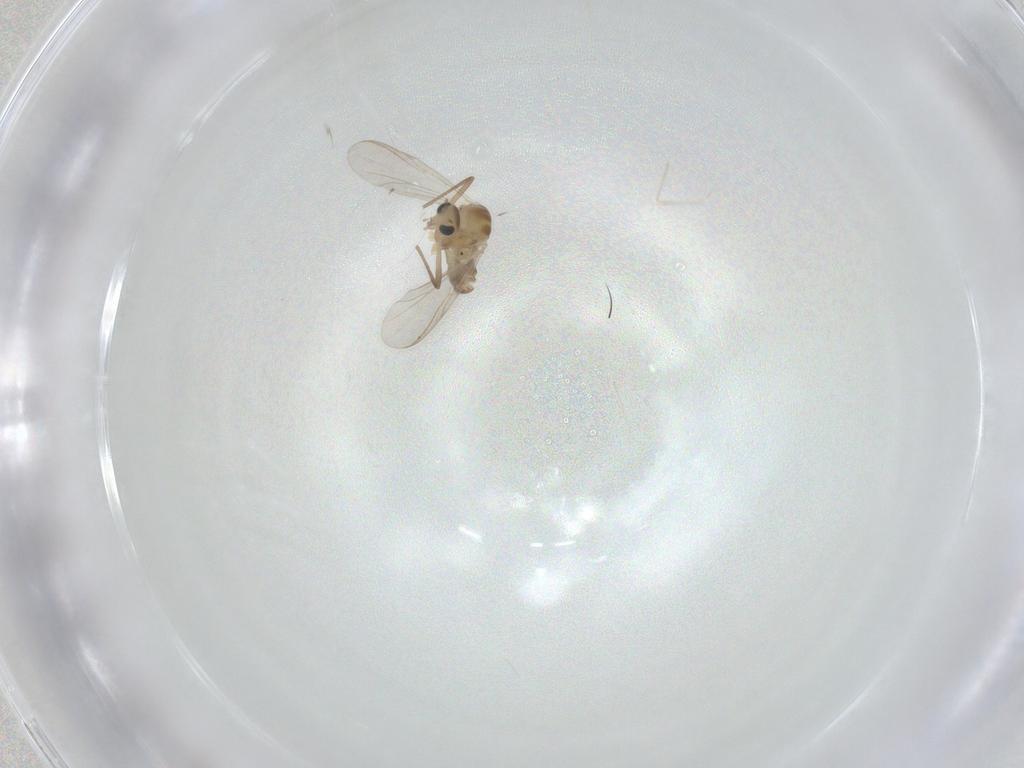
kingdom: Animalia
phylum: Arthropoda
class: Insecta
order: Diptera
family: Chironomidae
